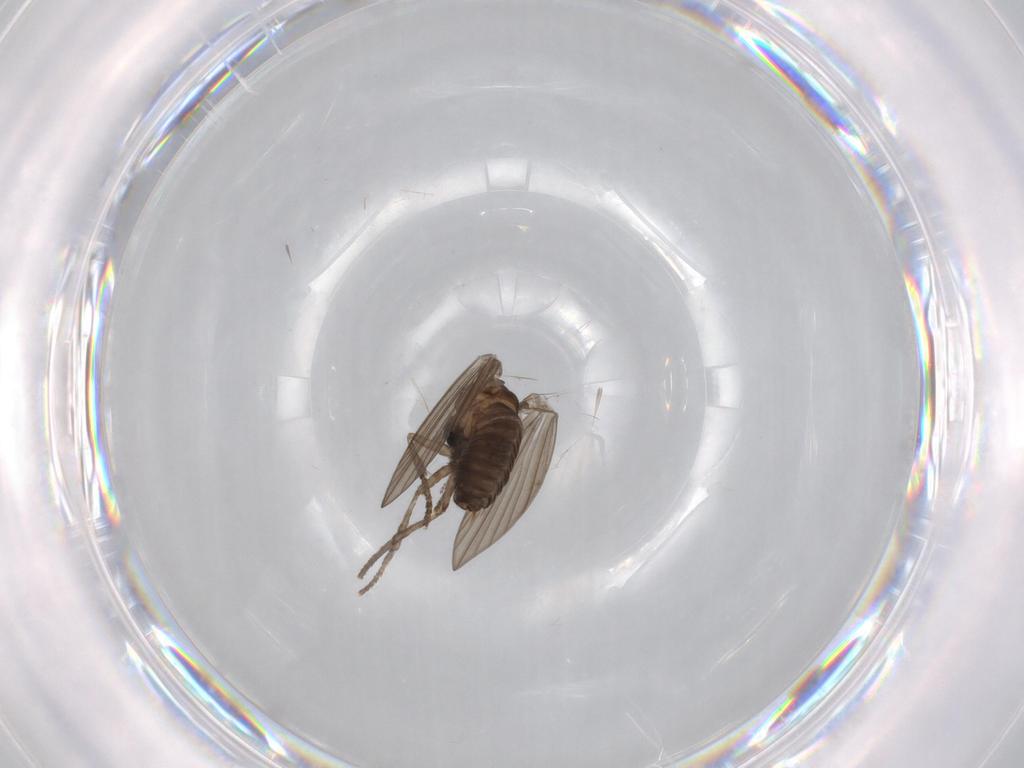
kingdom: Animalia
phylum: Arthropoda
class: Insecta
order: Diptera
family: Psychodidae
